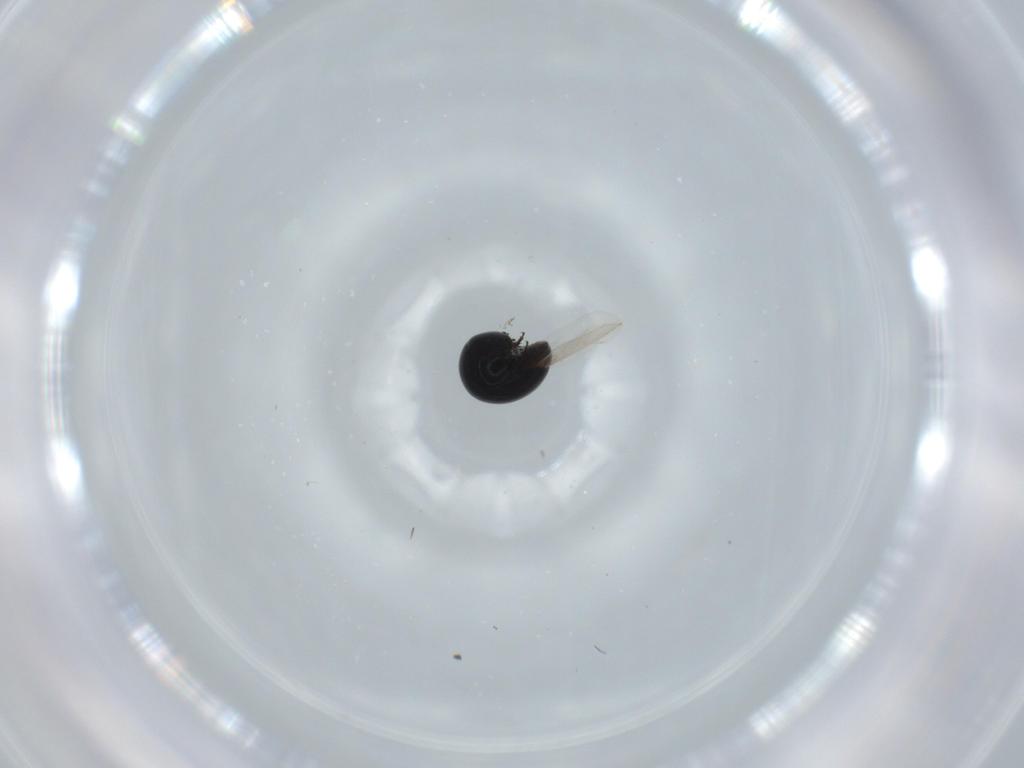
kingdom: Animalia
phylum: Arthropoda
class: Insecta
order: Coleoptera
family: Cybocephalidae
